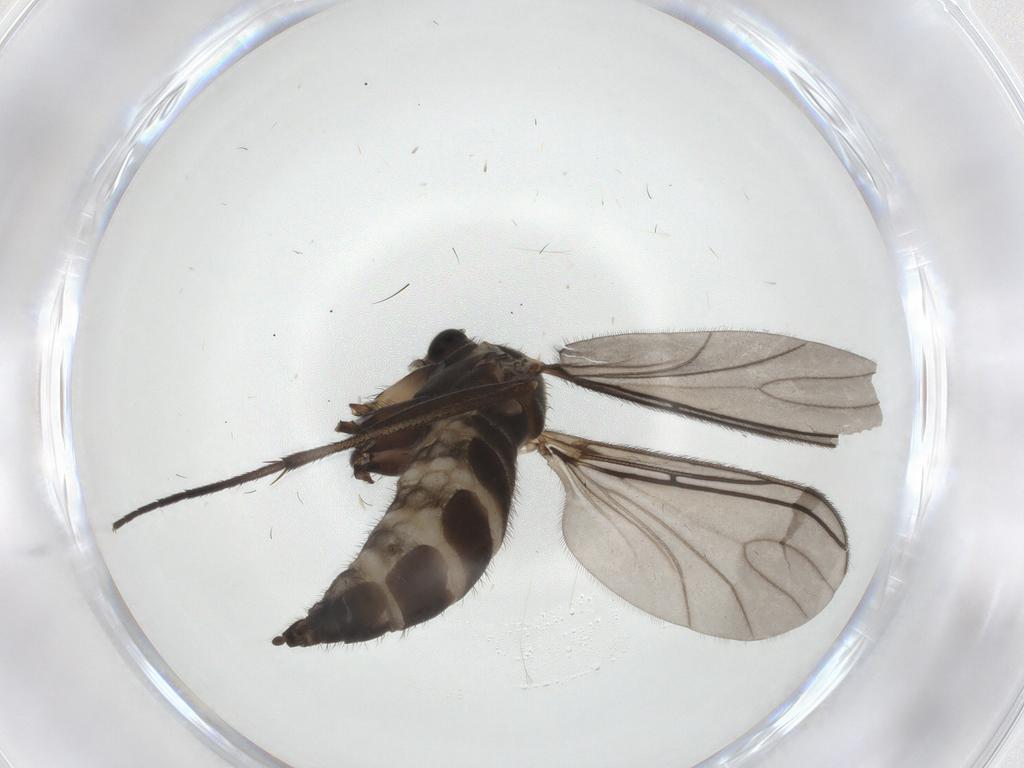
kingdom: Animalia
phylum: Arthropoda
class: Insecta
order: Diptera
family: Sciaridae
